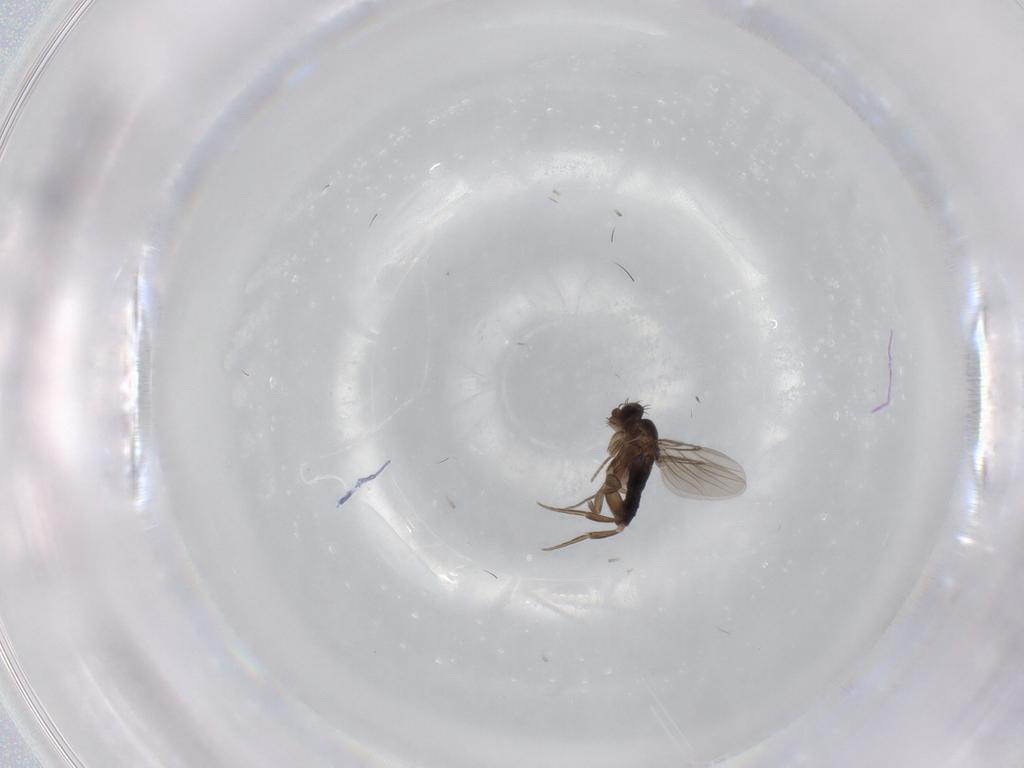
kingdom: Animalia
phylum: Arthropoda
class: Insecta
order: Diptera
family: Phoridae
